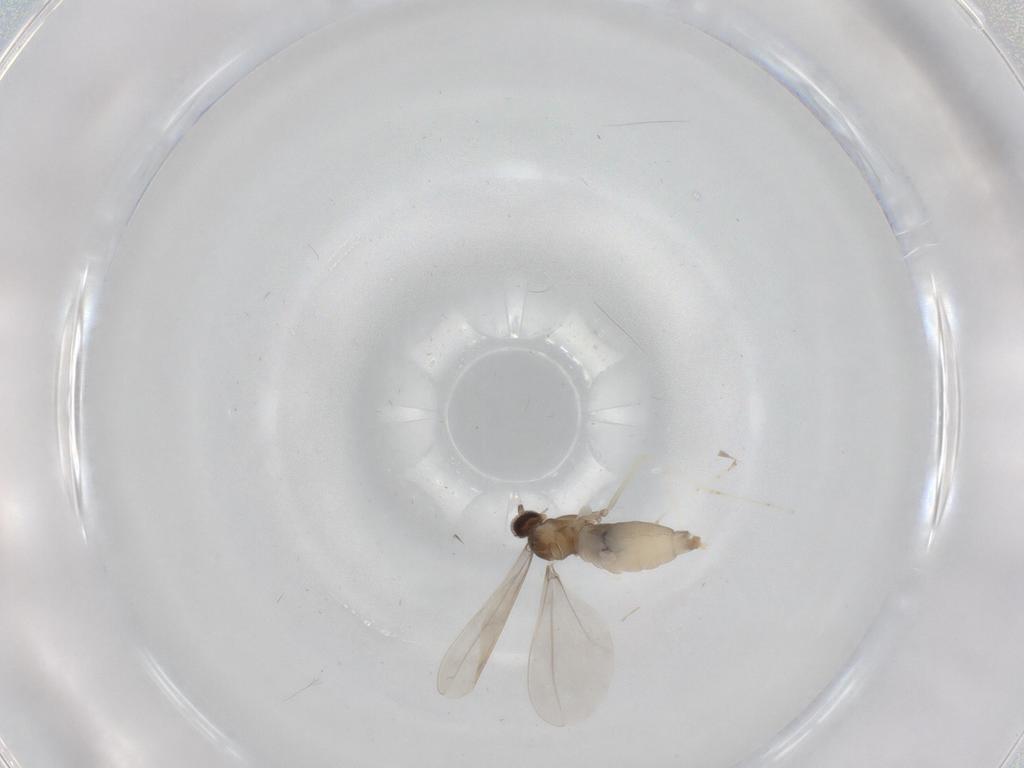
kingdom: Animalia
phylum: Arthropoda
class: Insecta
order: Diptera
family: Cecidomyiidae
